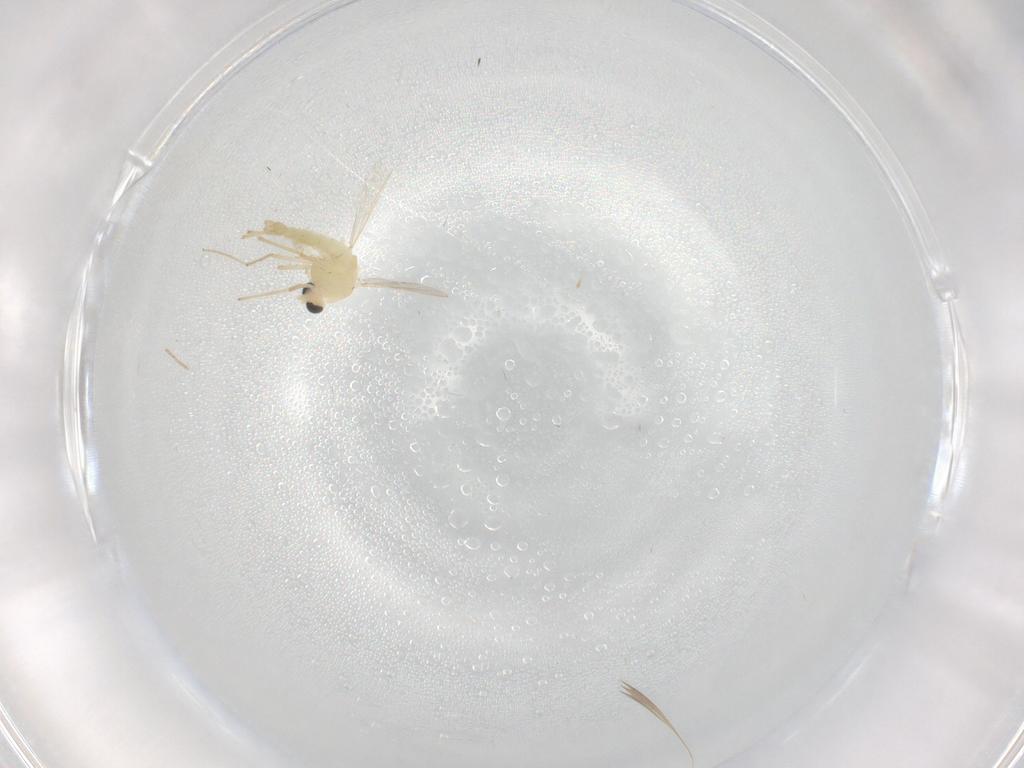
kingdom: Animalia
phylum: Arthropoda
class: Insecta
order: Diptera
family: Chironomidae
